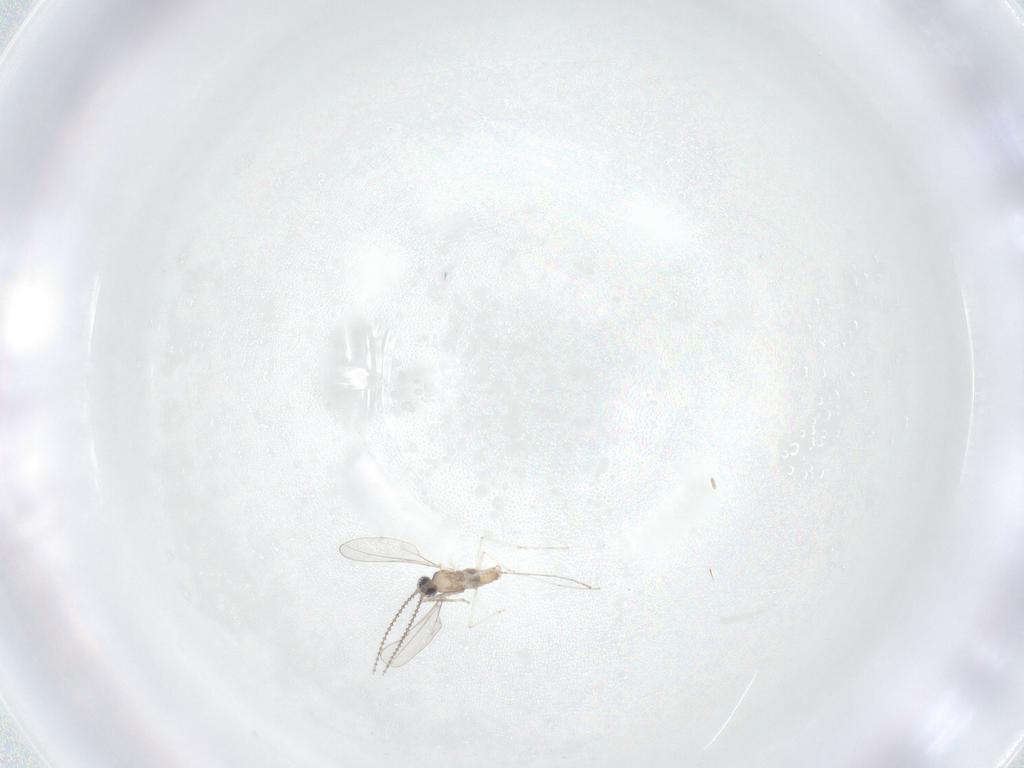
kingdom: Animalia
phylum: Arthropoda
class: Insecta
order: Diptera
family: Cecidomyiidae
